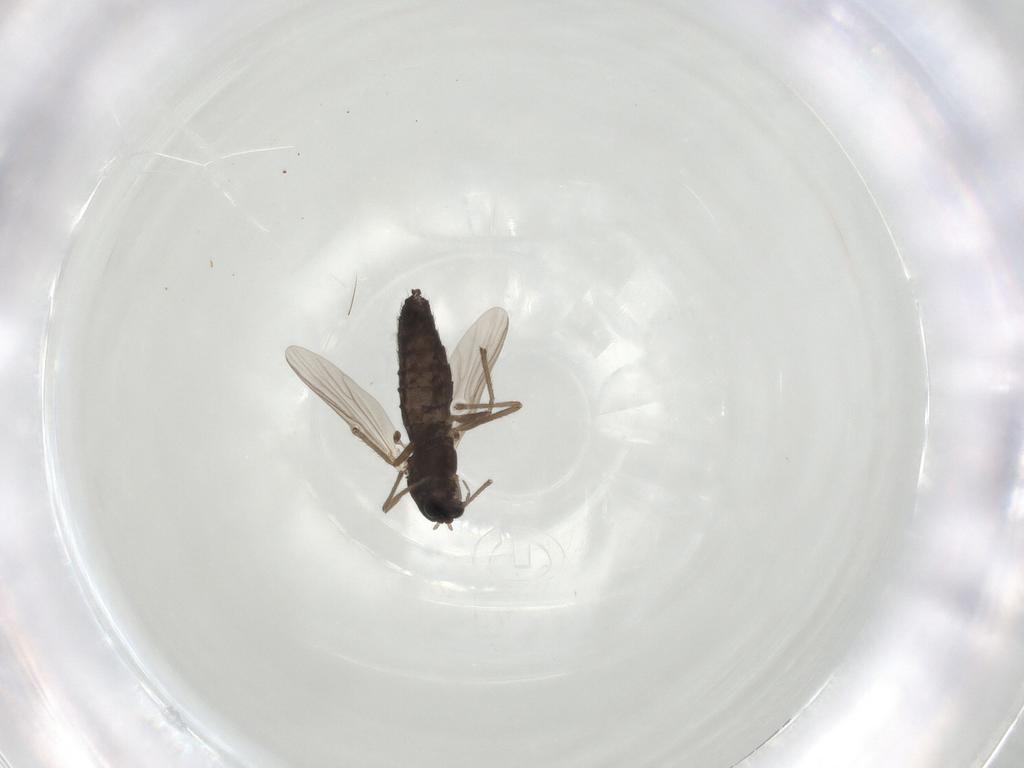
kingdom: Animalia
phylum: Arthropoda
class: Insecta
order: Diptera
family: Chironomidae
